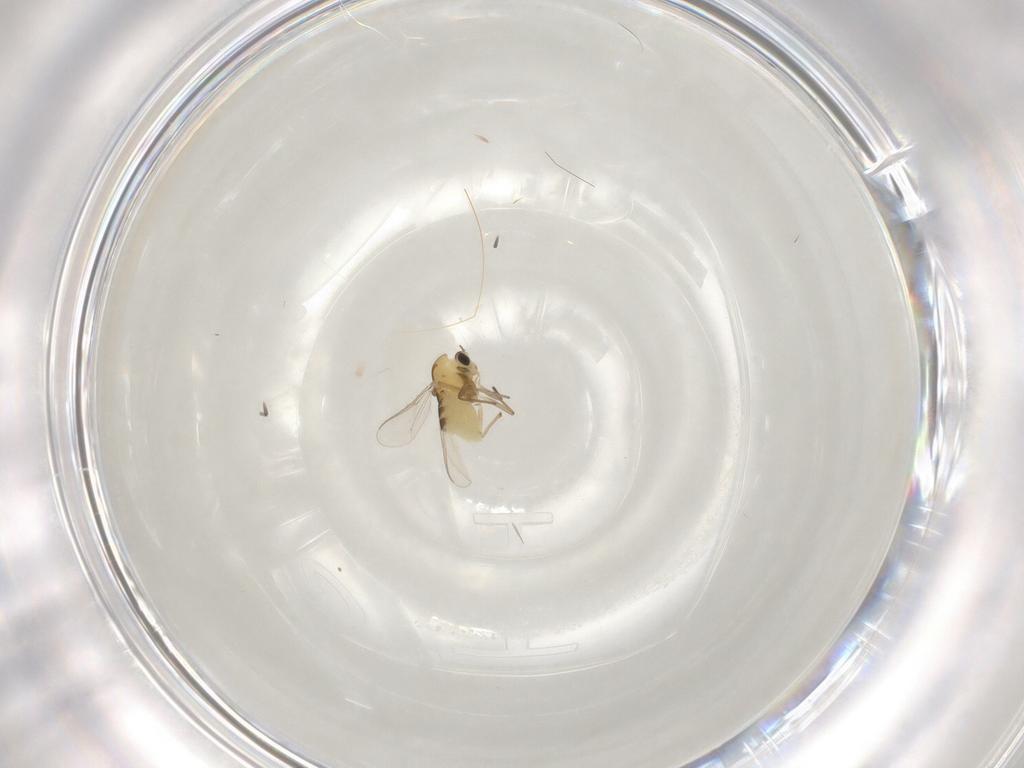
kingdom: Animalia
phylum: Arthropoda
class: Insecta
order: Diptera
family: Chironomidae
